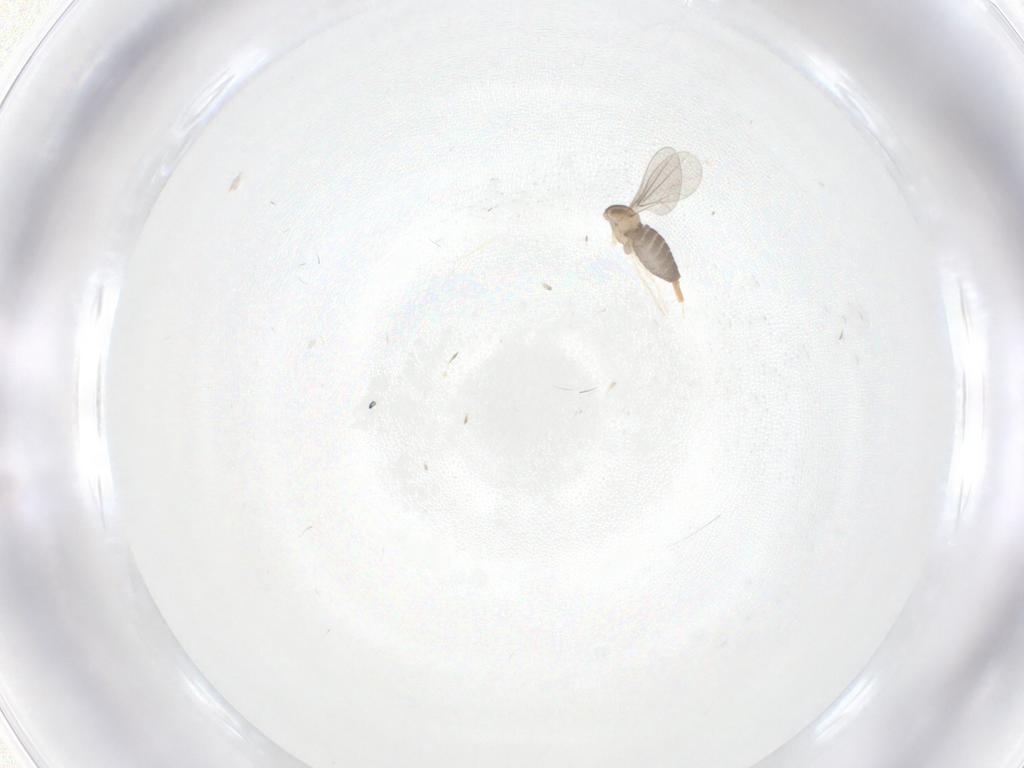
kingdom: Animalia
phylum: Arthropoda
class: Insecta
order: Diptera
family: Cecidomyiidae
